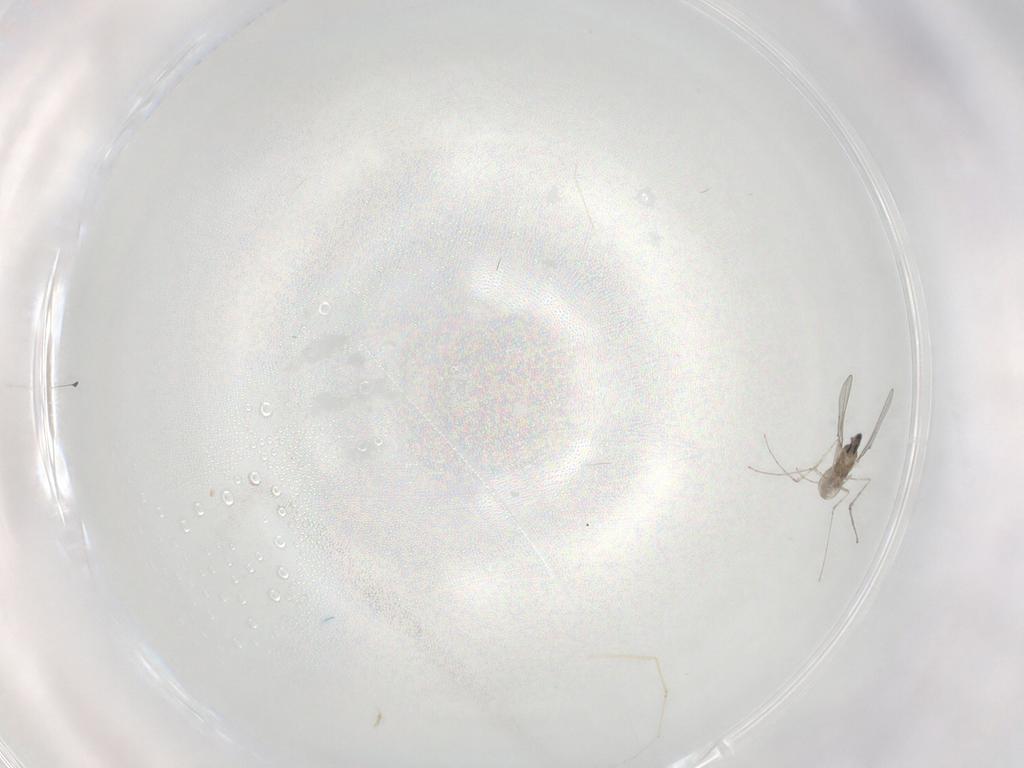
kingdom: Animalia
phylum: Arthropoda
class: Insecta
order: Diptera
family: Cecidomyiidae
